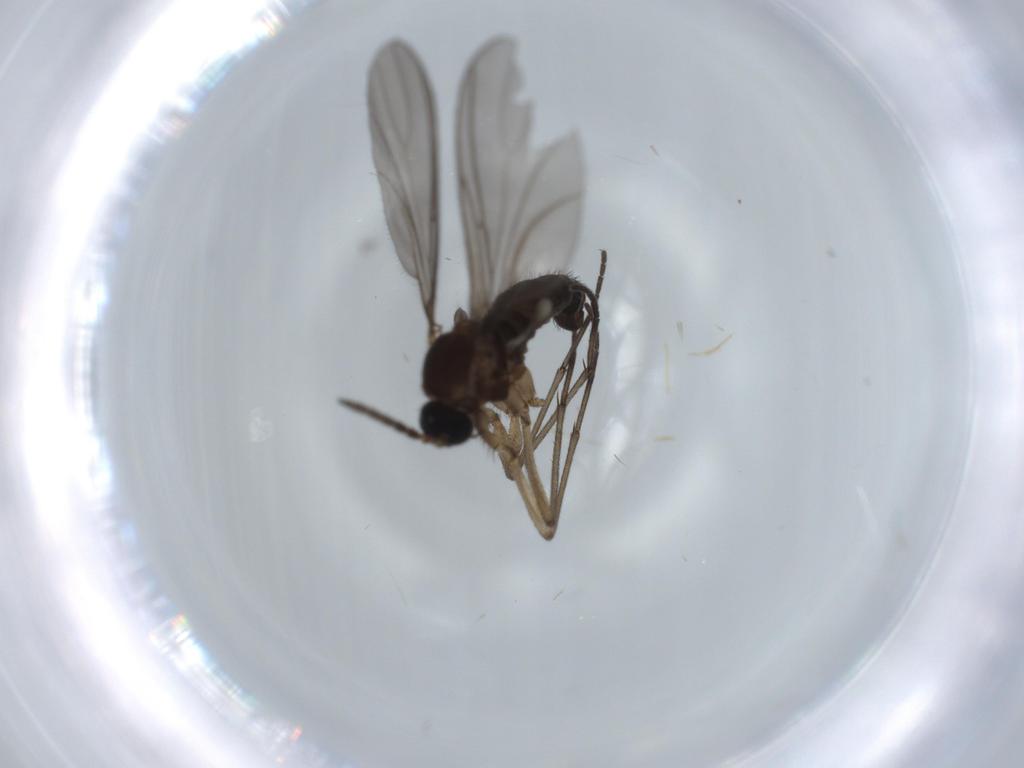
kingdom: Animalia
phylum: Arthropoda
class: Insecta
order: Diptera
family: Sciaridae
